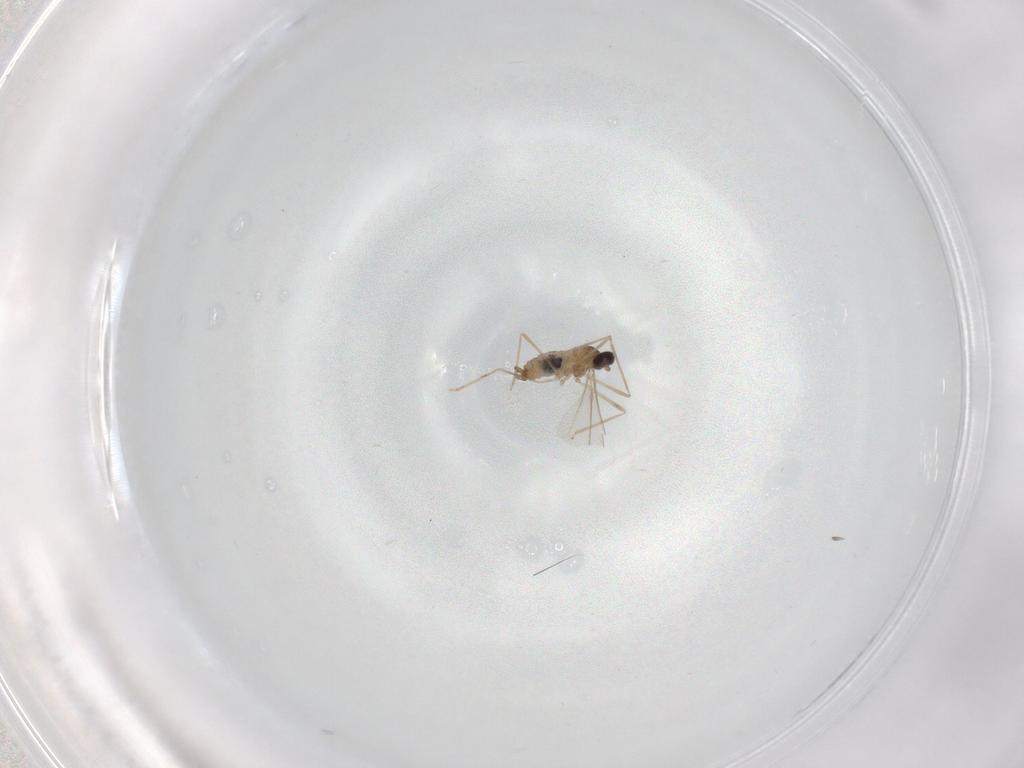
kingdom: Animalia
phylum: Arthropoda
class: Insecta
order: Diptera
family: Cecidomyiidae
